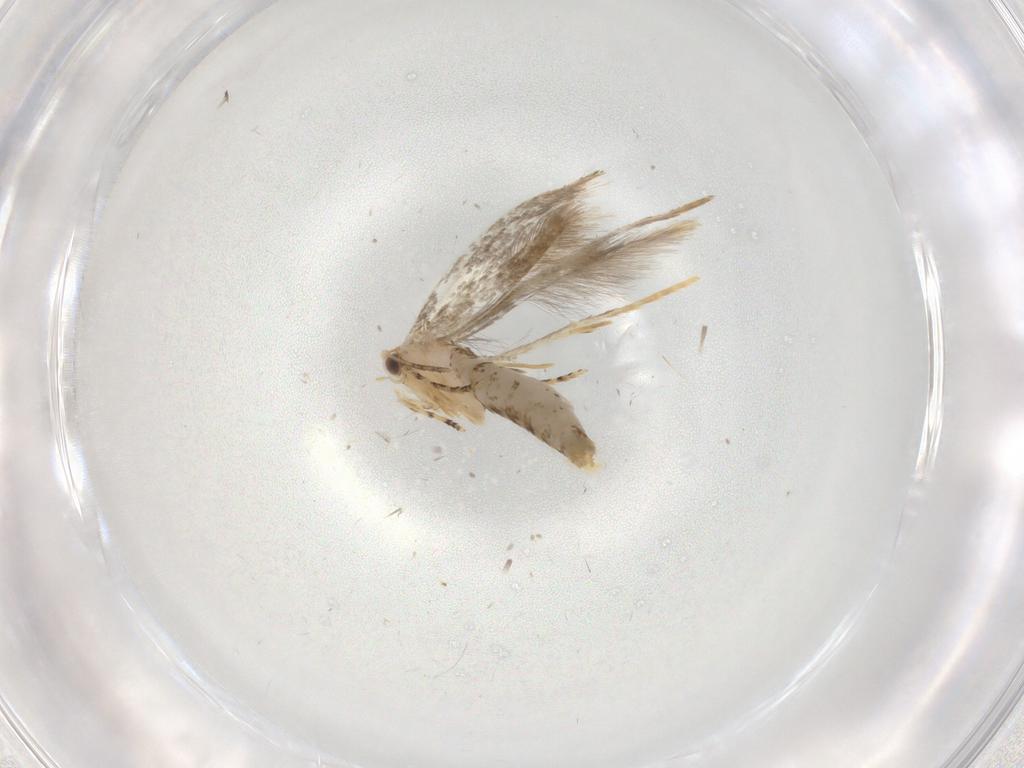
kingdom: Animalia
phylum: Arthropoda
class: Insecta
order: Lepidoptera
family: Tineidae
